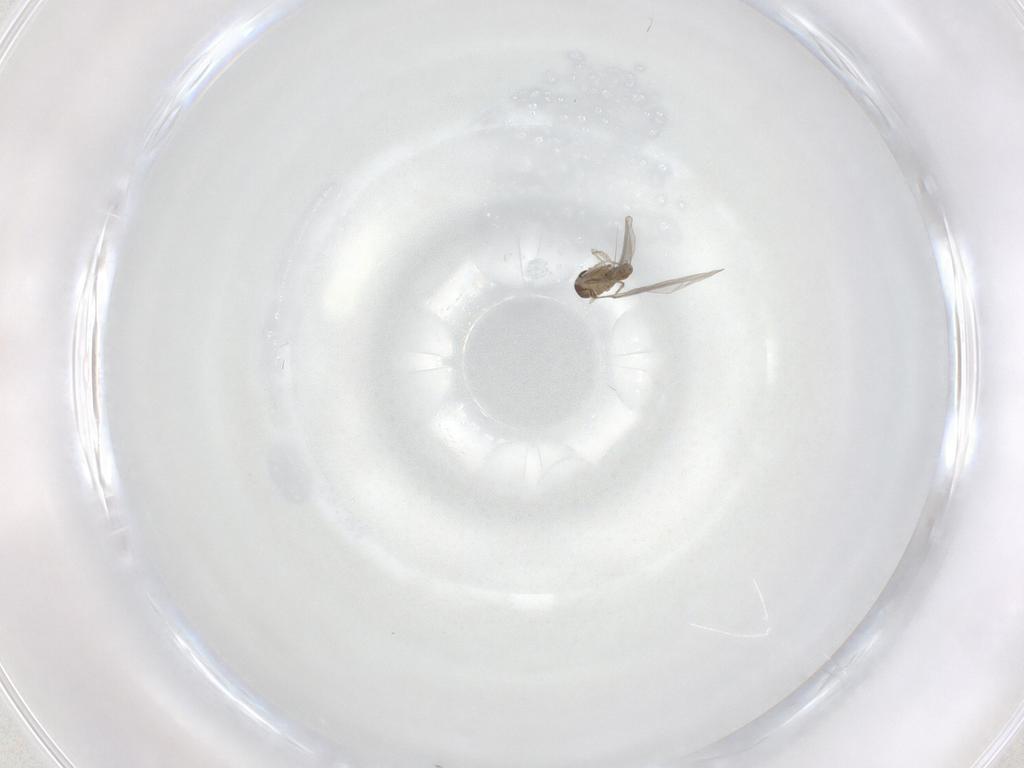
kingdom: Animalia
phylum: Arthropoda
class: Insecta
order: Diptera
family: Cecidomyiidae
